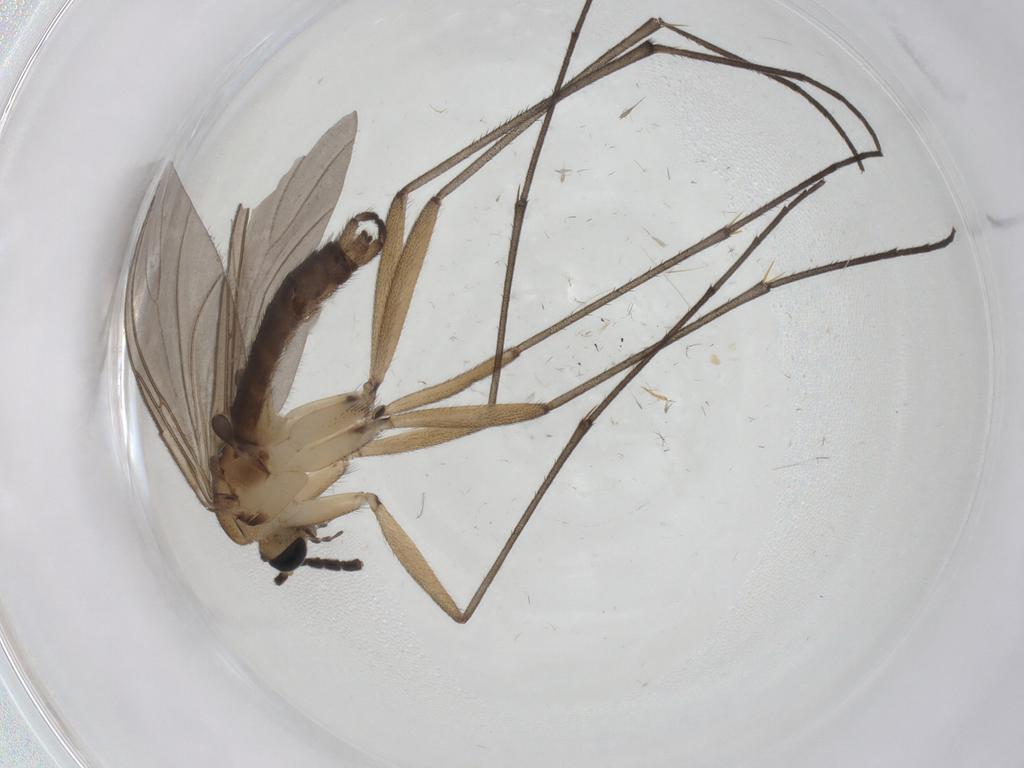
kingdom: Animalia
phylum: Arthropoda
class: Insecta
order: Diptera
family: Sciaridae
